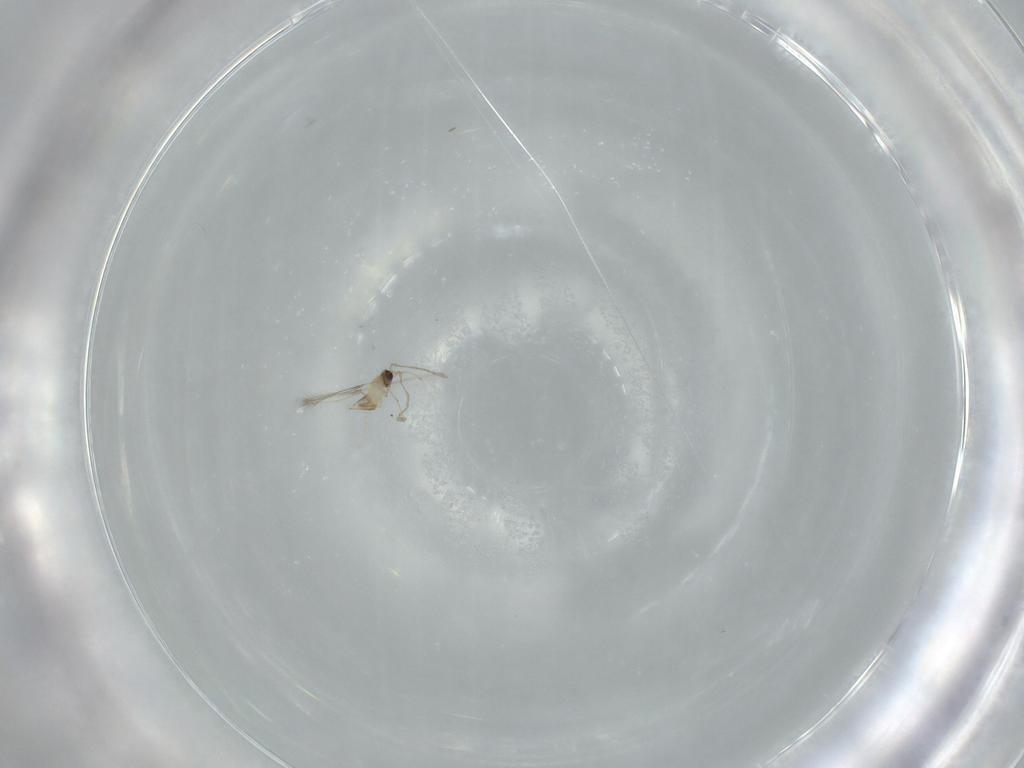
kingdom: Animalia
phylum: Arthropoda
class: Insecta
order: Hymenoptera
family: Mymaridae
